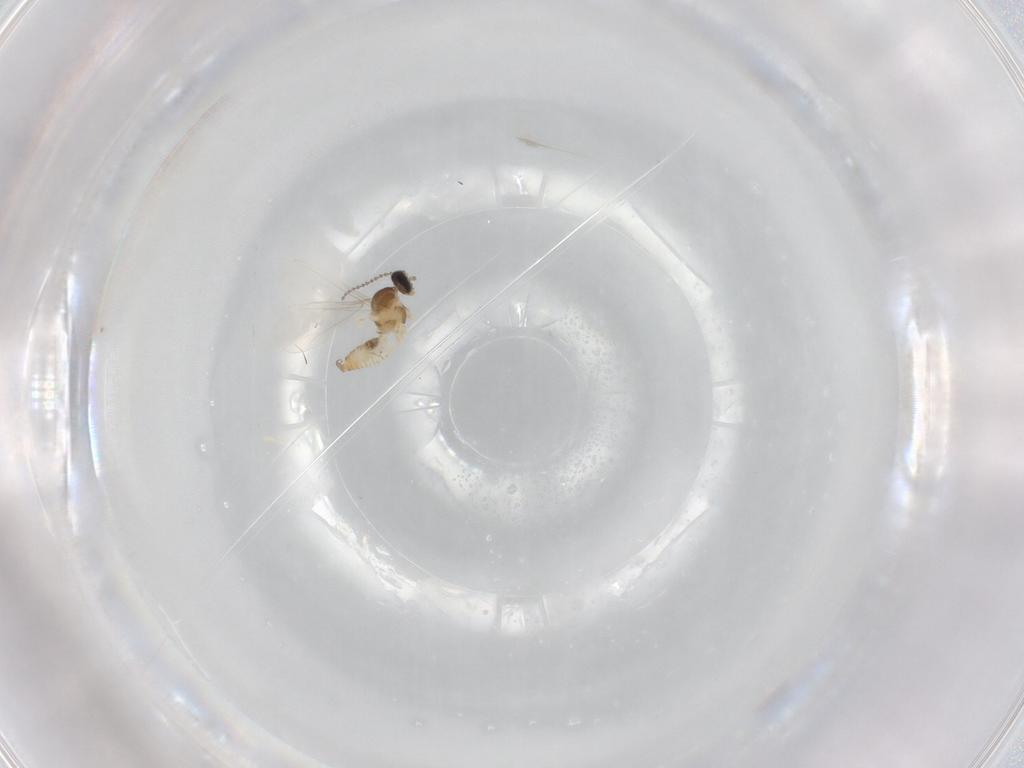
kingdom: Animalia
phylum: Arthropoda
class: Insecta
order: Diptera
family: Cecidomyiidae
